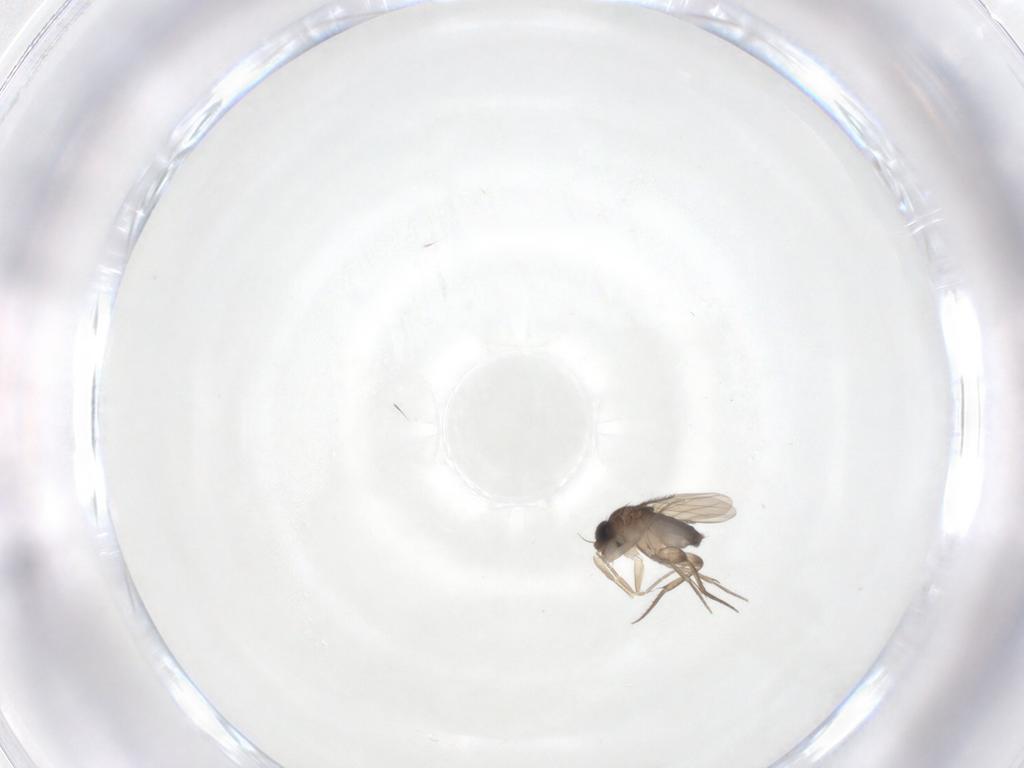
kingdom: Animalia
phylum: Arthropoda
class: Insecta
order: Diptera
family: Phoridae
